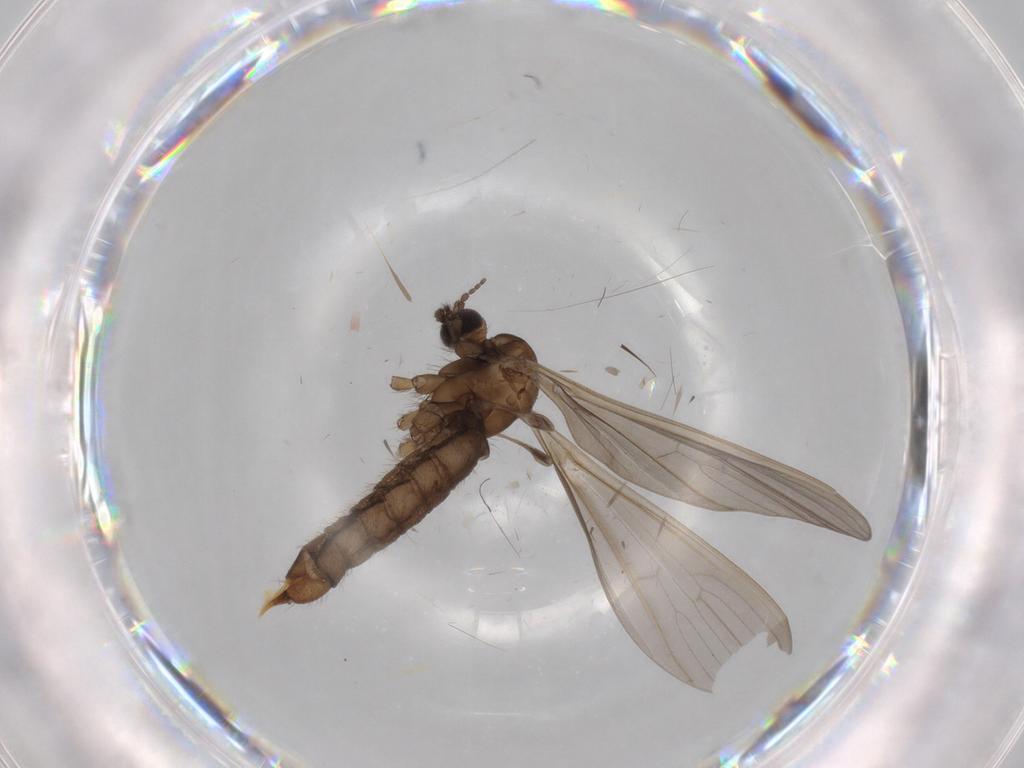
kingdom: Animalia
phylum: Arthropoda
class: Insecta
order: Diptera
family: Limoniidae
